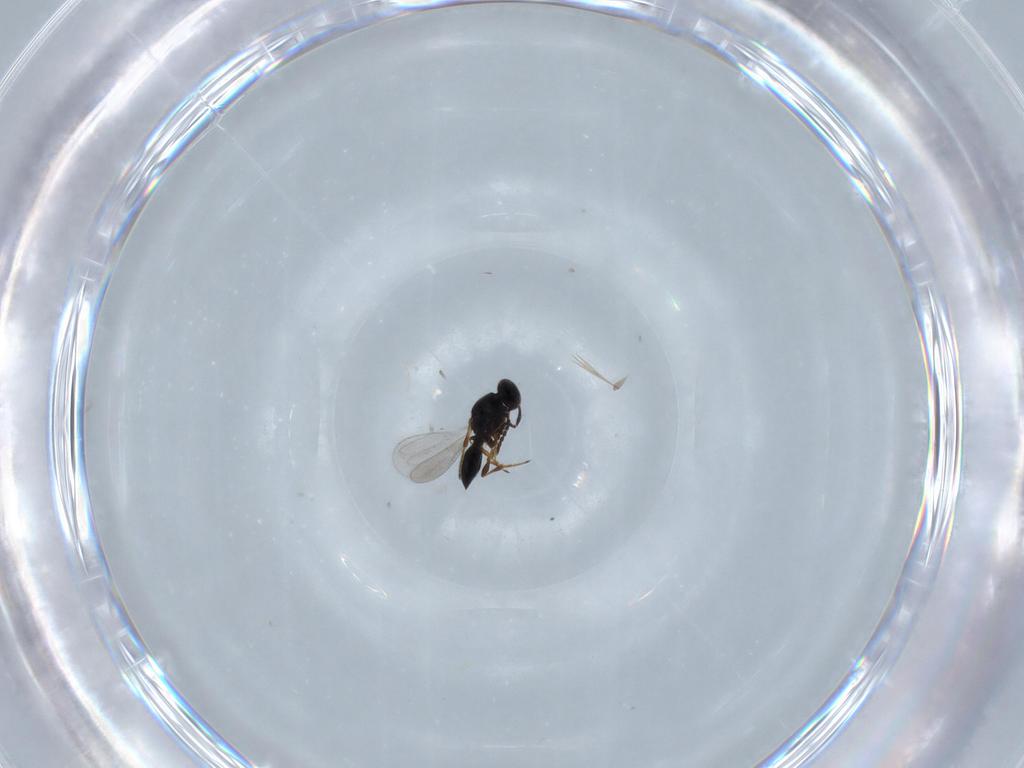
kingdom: Animalia
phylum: Arthropoda
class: Insecta
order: Hymenoptera
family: Platygastridae
